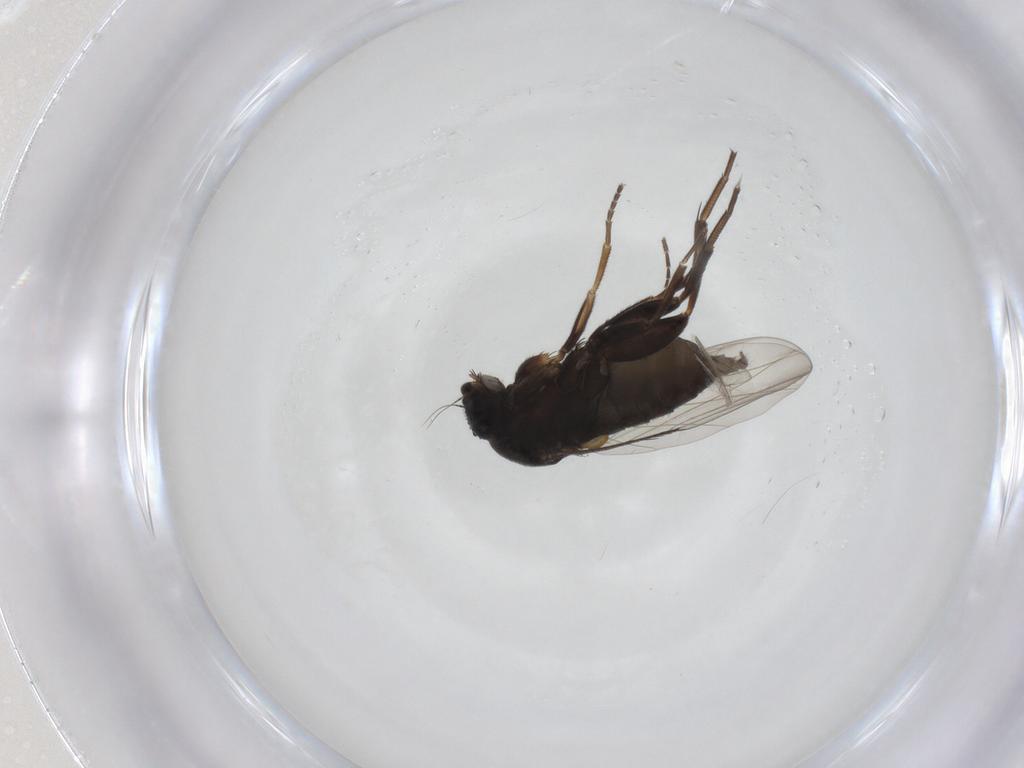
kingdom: Animalia
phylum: Arthropoda
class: Insecta
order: Diptera
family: Phoridae
